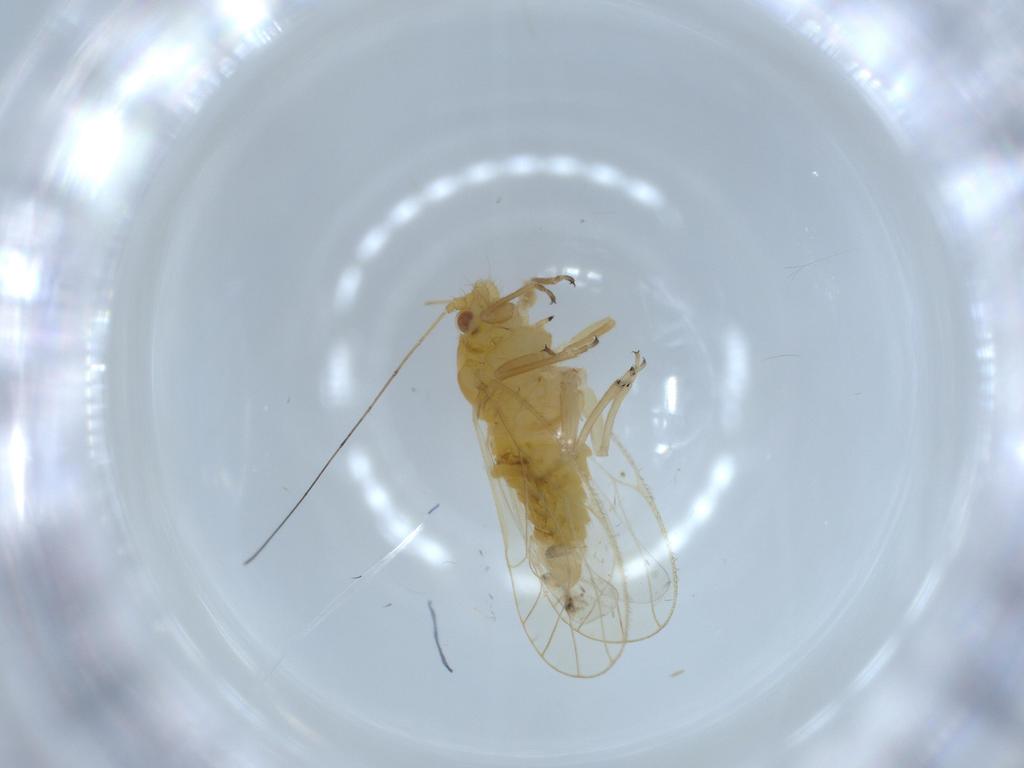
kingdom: Animalia
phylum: Arthropoda
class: Insecta
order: Hemiptera
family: Psyllidae
